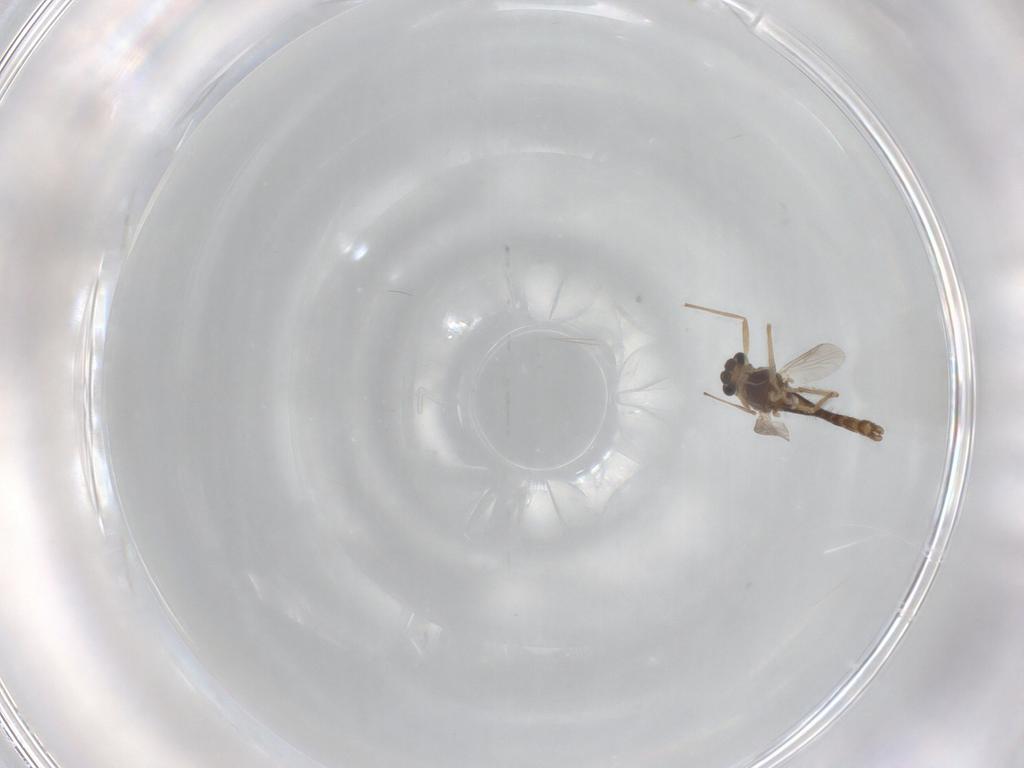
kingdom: Animalia
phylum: Arthropoda
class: Insecta
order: Diptera
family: Chironomidae
